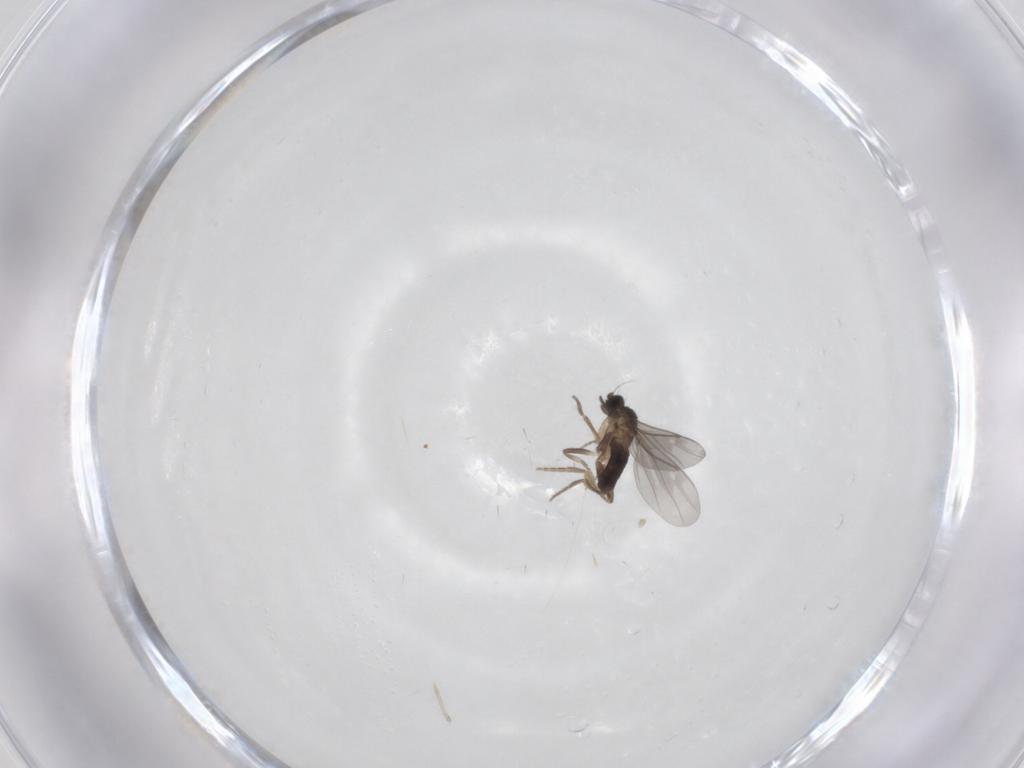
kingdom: Animalia
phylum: Arthropoda
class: Insecta
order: Diptera
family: Cecidomyiidae
